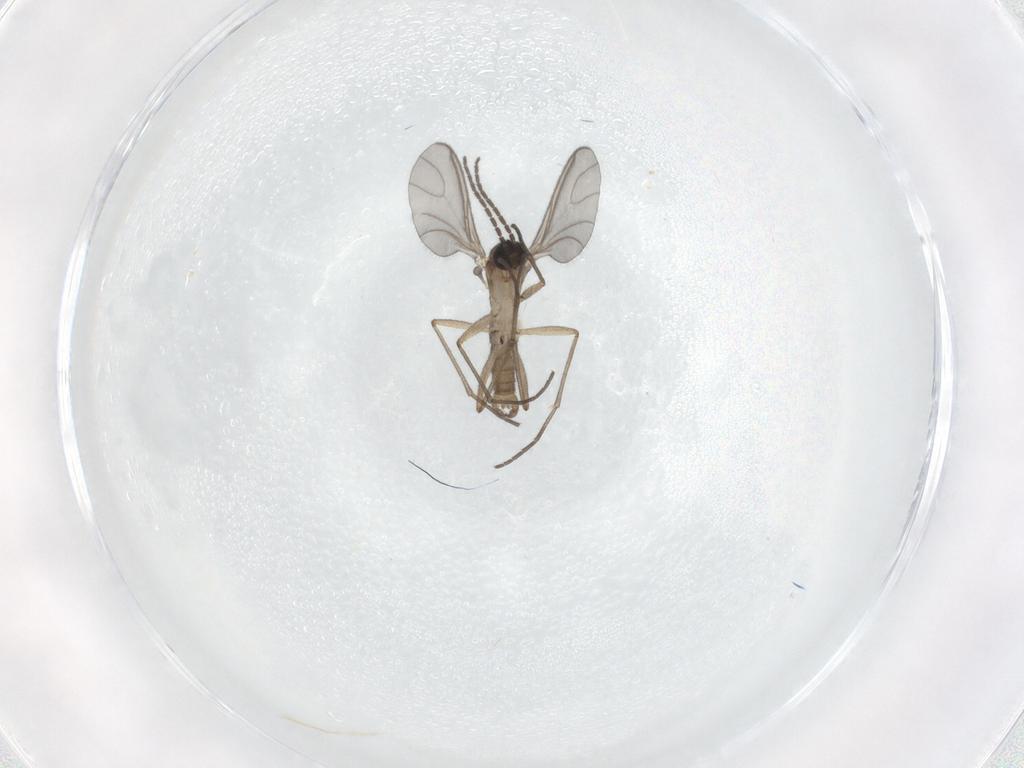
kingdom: Animalia
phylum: Arthropoda
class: Insecta
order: Diptera
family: Sciaridae
